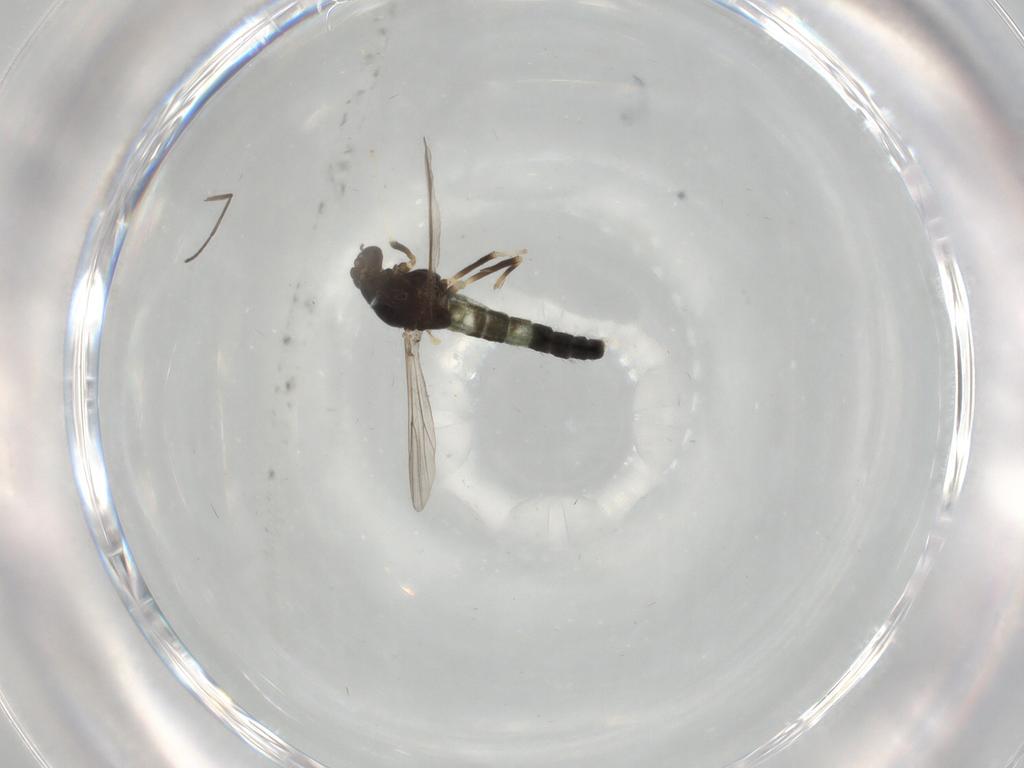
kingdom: Animalia
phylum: Arthropoda
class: Insecta
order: Diptera
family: Chironomidae
